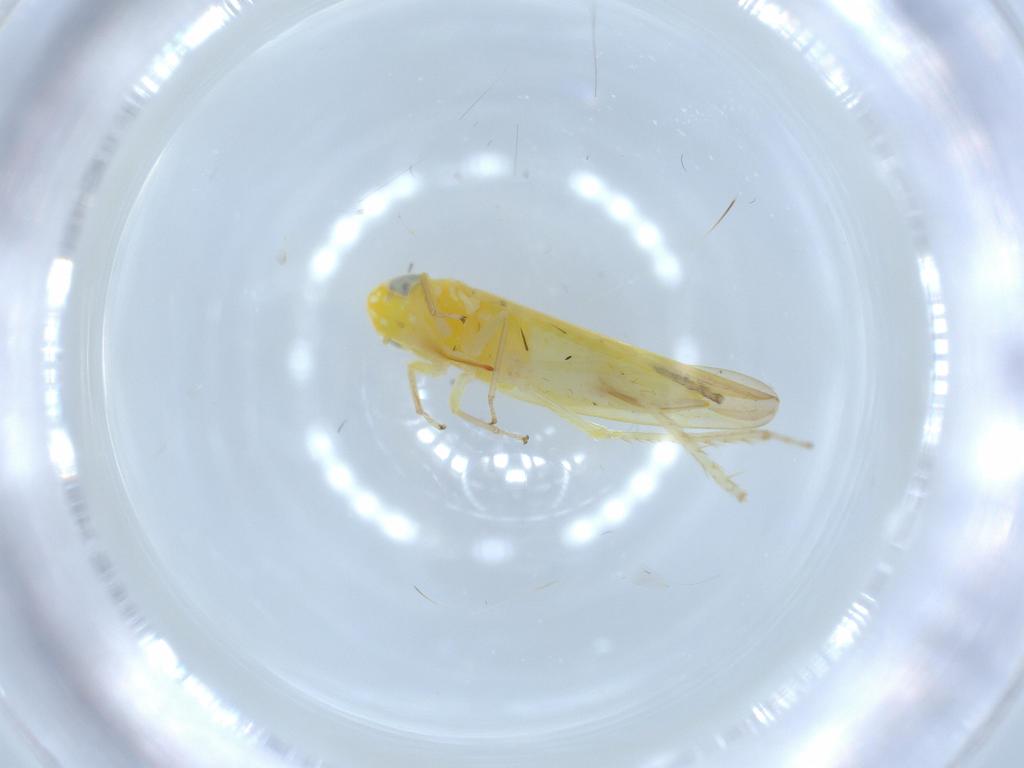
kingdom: Animalia
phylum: Arthropoda
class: Insecta
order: Hemiptera
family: Cicadellidae
